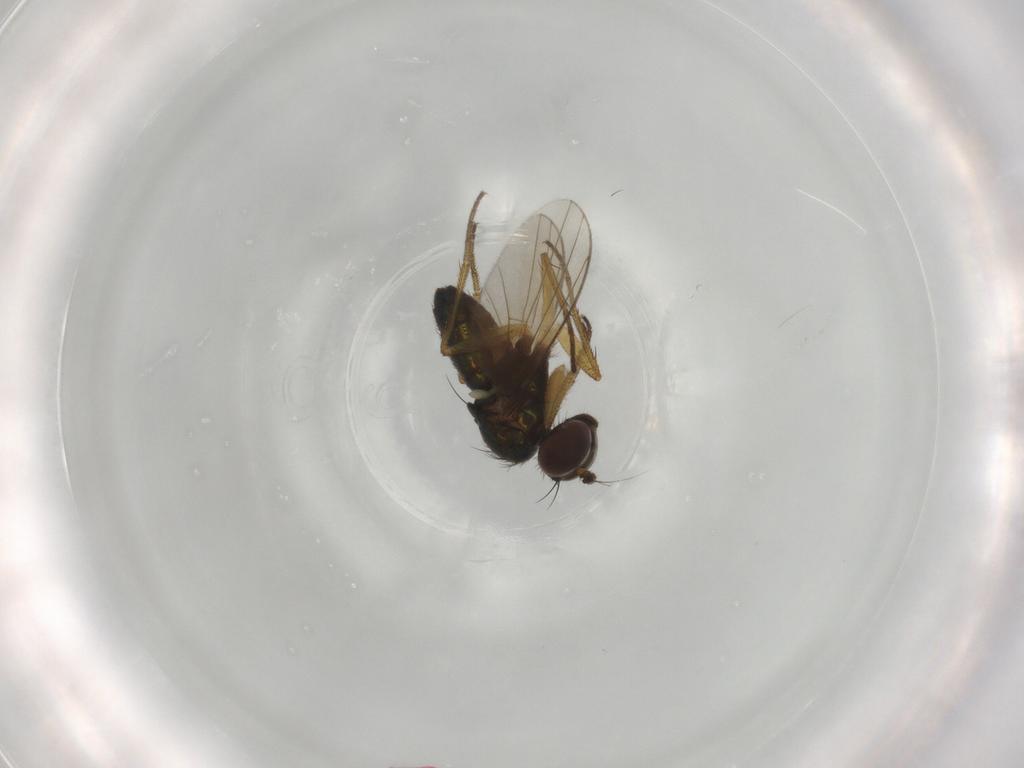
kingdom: Animalia
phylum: Arthropoda
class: Insecta
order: Diptera
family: Dolichopodidae
